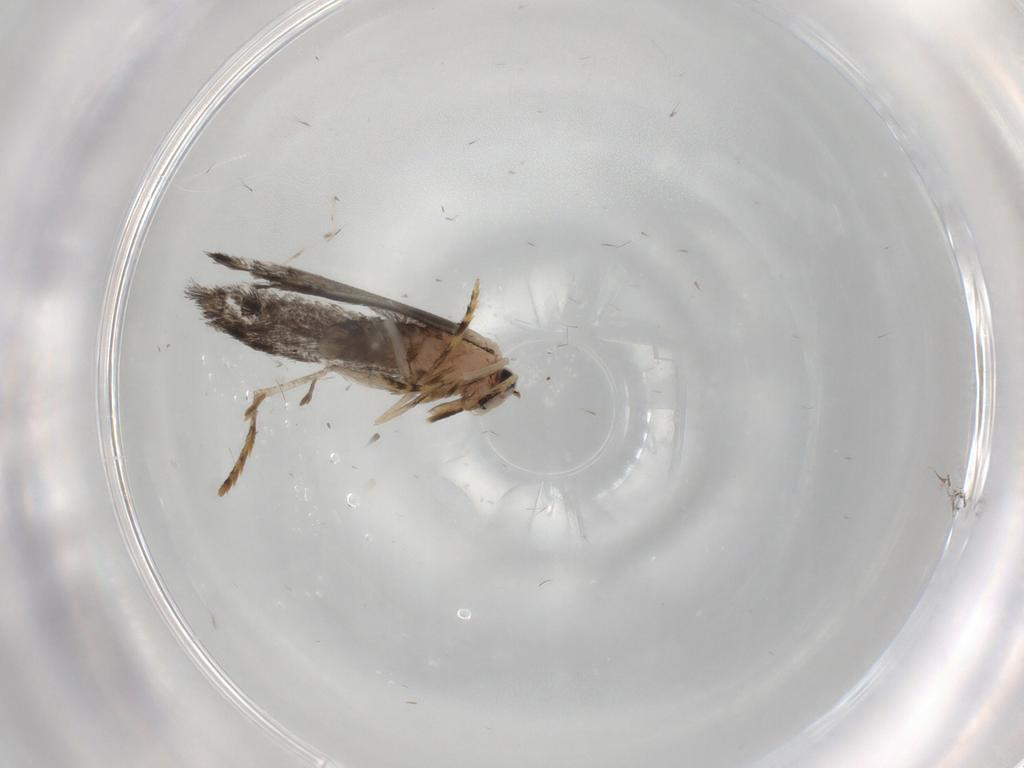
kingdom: Animalia
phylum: Arthropoda
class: Insecta
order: Lepidoptera
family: Tineidae
